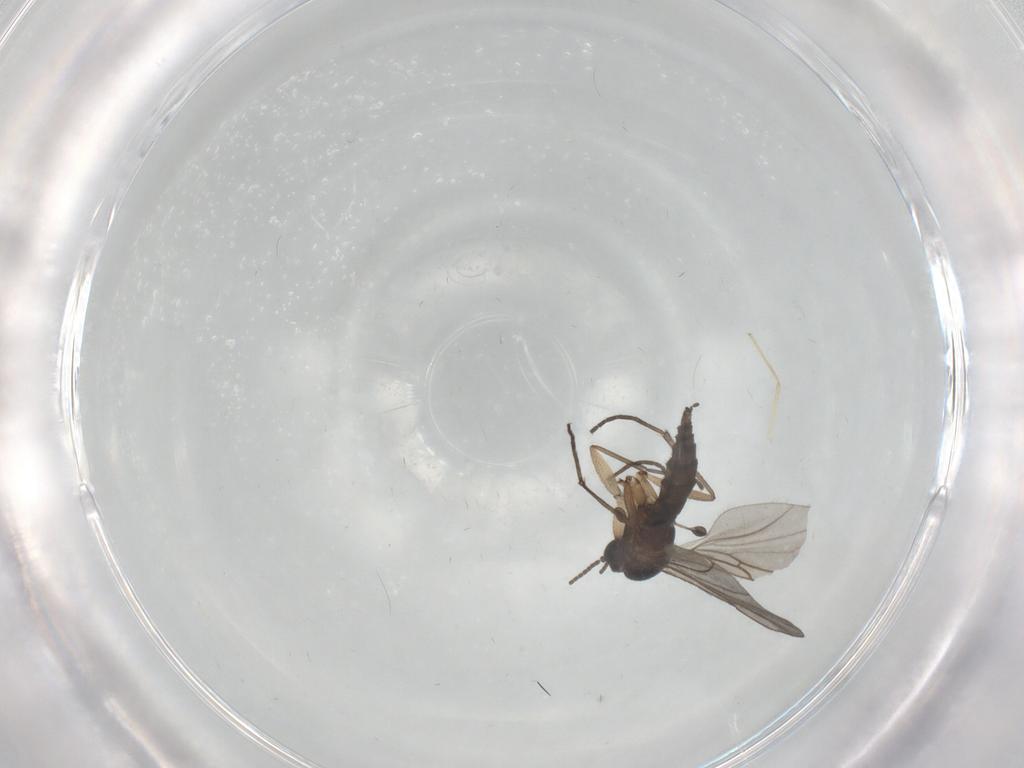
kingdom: Animalia
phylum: Arthropoda
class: Insecta
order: Diptera
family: Sciaridae
